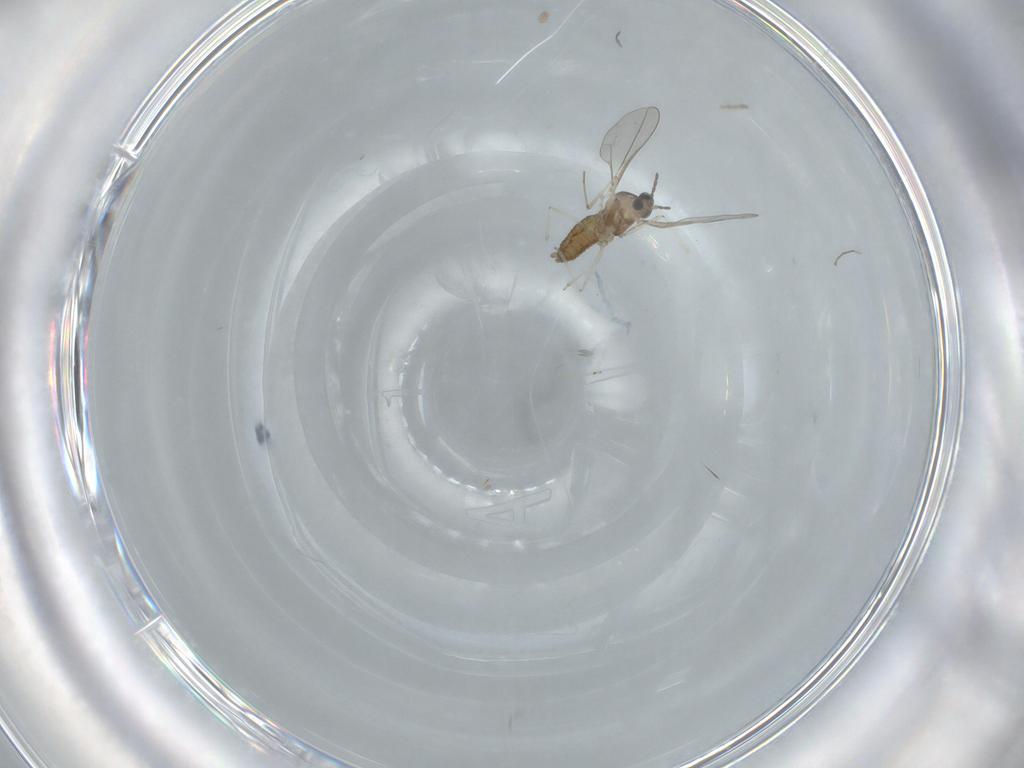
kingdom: Animalia
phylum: Arthropoda
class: Insecta
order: Diptera
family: Cecidomyiidae
